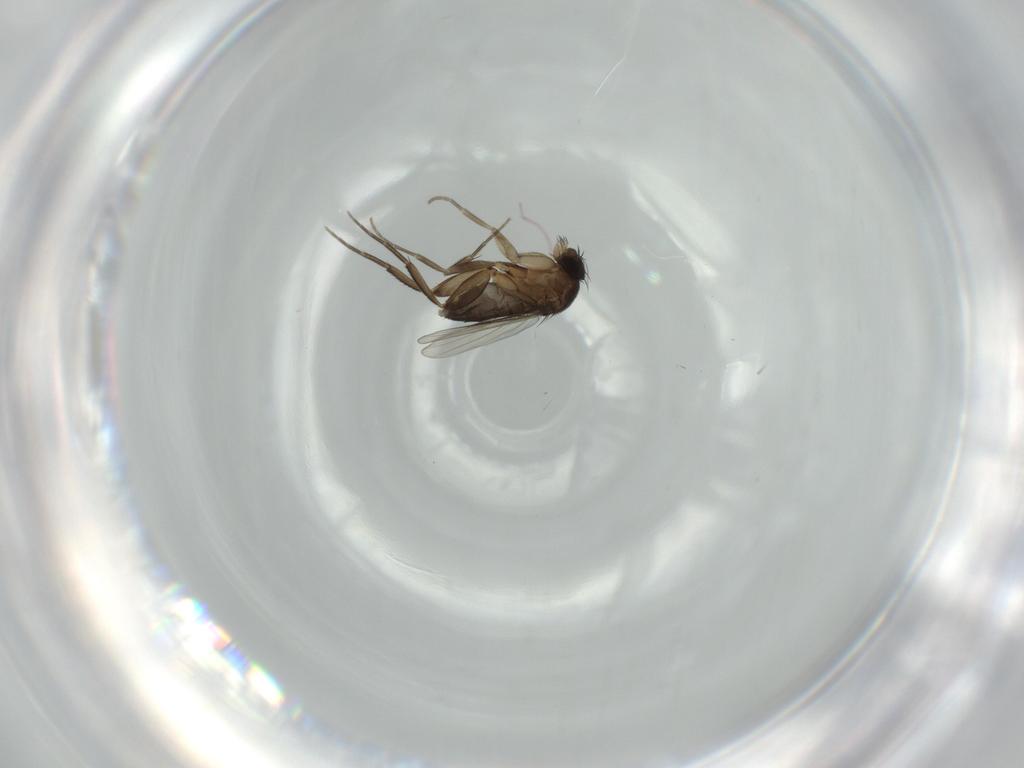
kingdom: Animalia
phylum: Arthropoda
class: Insecta
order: Diptera
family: Phoridae
